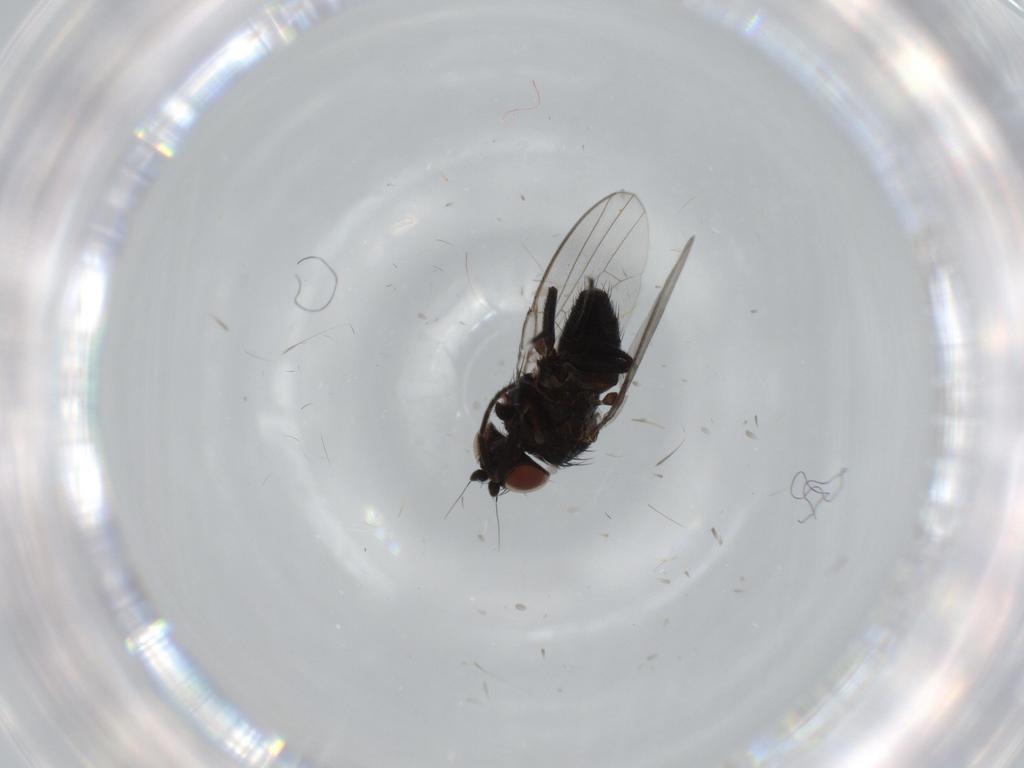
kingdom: Animalia
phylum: Arthropoda
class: Insecta
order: Diptera
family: Milichiidae
